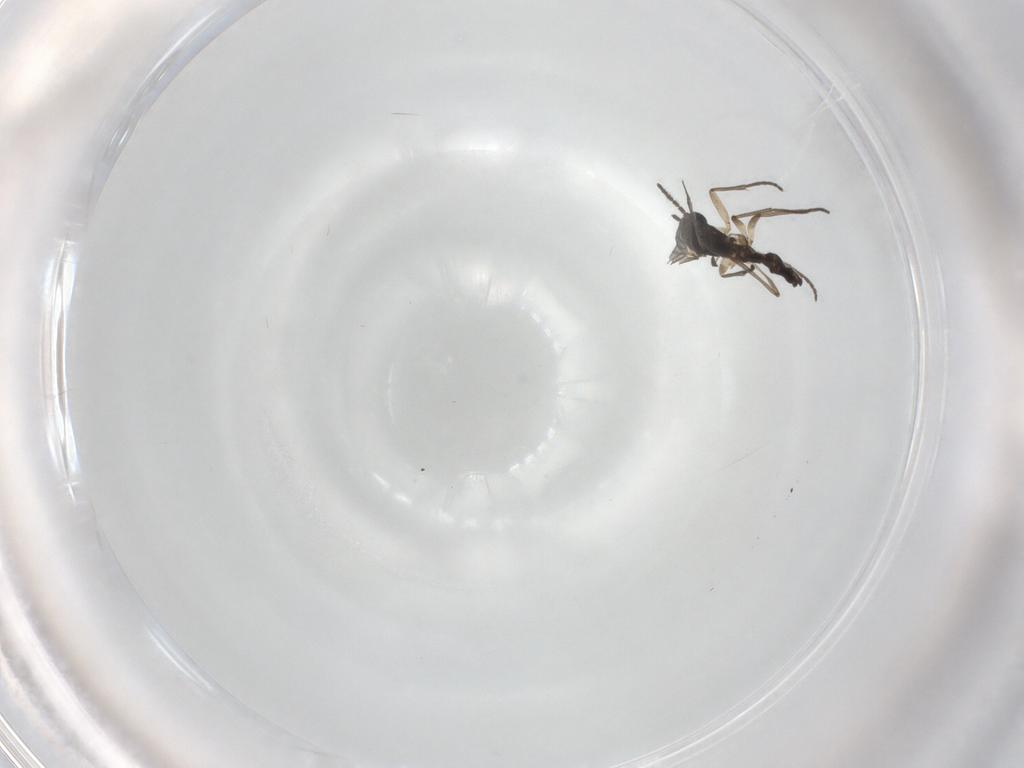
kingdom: Animalia
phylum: Arthropoda
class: Insecta
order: Diptera
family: Sciaridae
